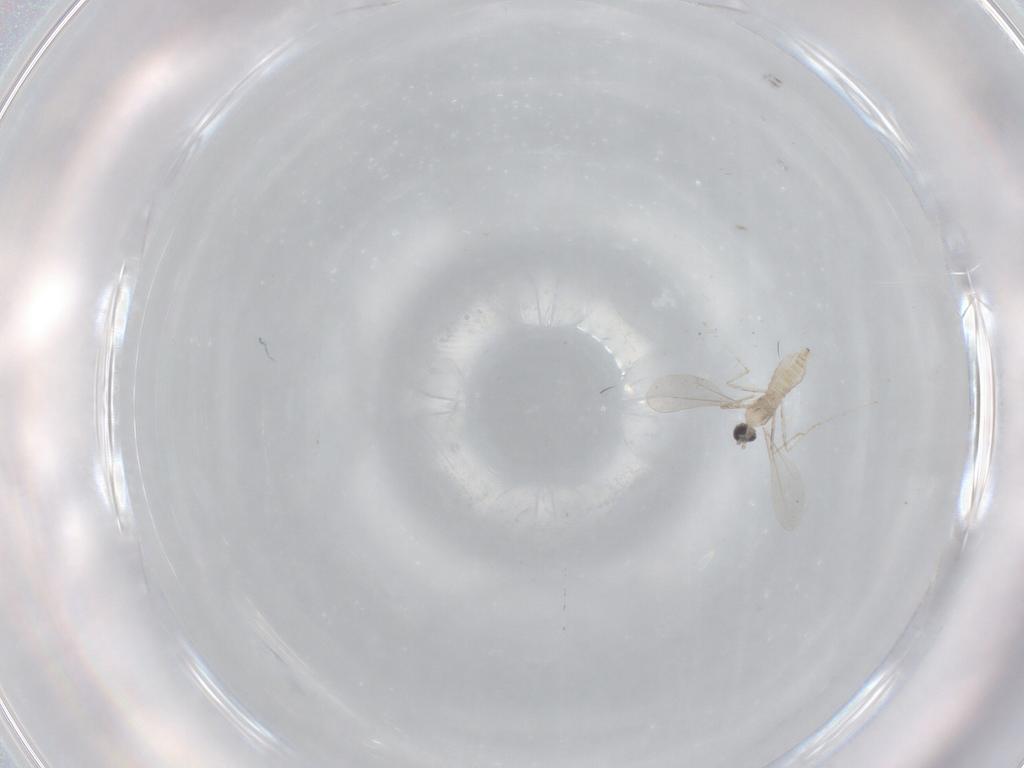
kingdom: Animalia
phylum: Arthropoda
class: Insecta
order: Diptera
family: Cecidomyiidae
